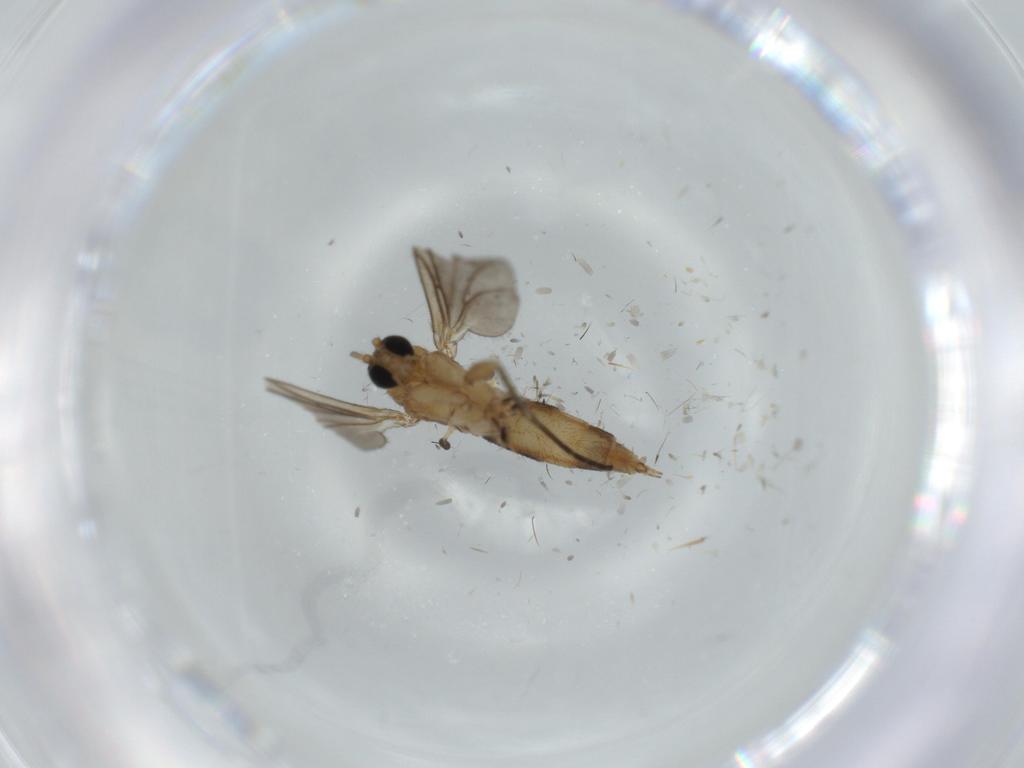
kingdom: Animalia
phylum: Arthropoda
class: Insecta
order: Diptera
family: Sciaridae
